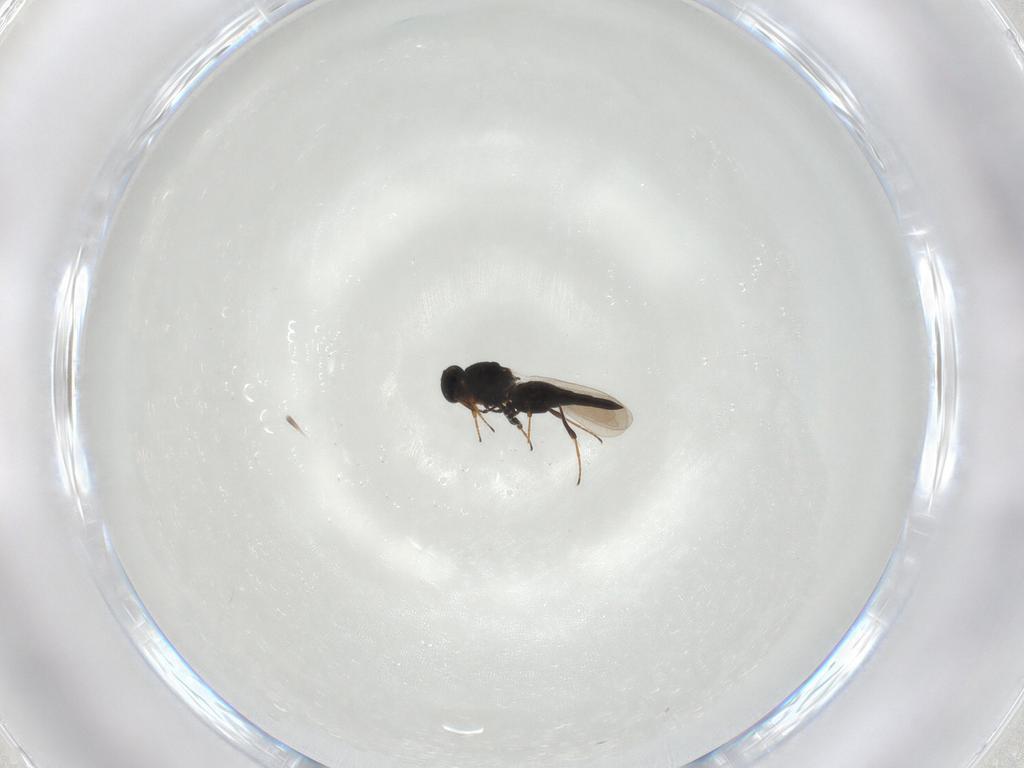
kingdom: Animalia
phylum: Arthropoda
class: Insecta
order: Hymenoptera
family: Platygastridae
